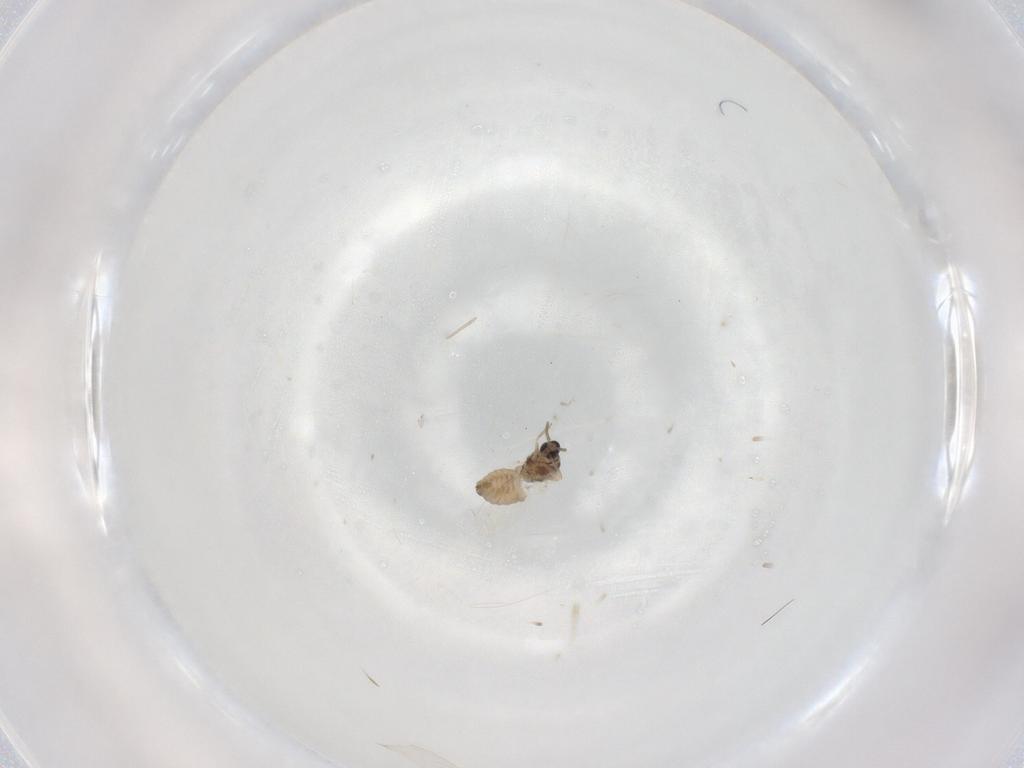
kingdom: Animalia
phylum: Arthropoda
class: Insecta
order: Diptera
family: Cecidomyiidae
